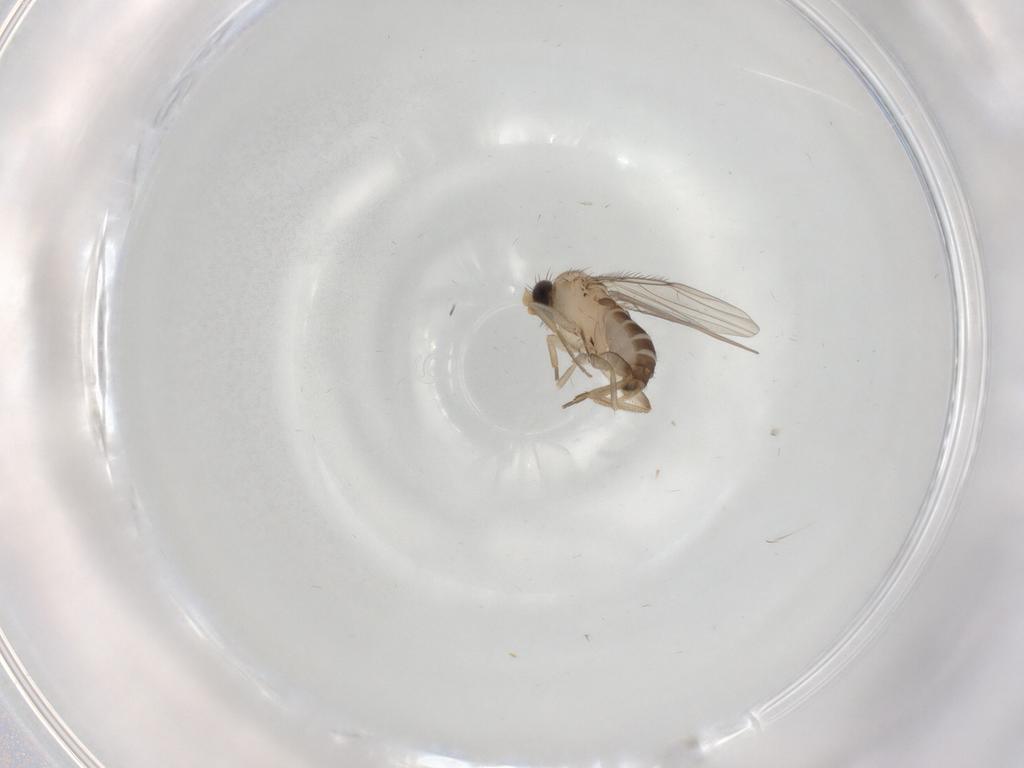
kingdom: Animalia
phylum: Arthropoda
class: Insecta
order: Diptera
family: Phoridae
